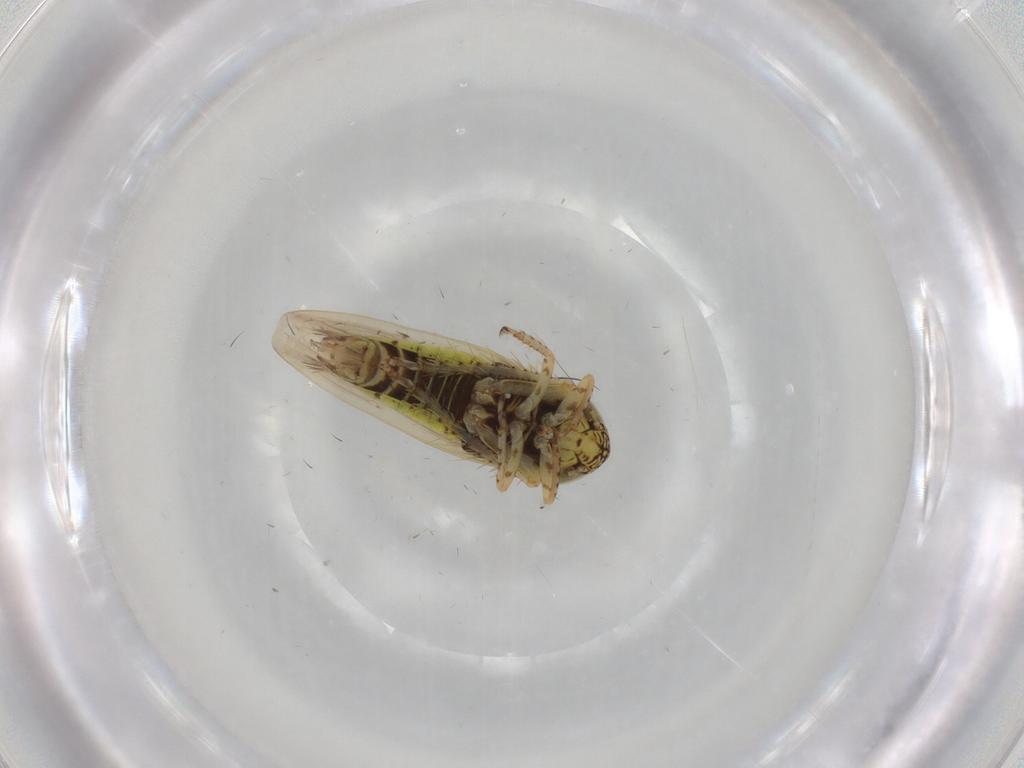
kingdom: Animalia
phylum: Arthropoda
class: Insecta
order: Hemiptera
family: Cicadellidae
